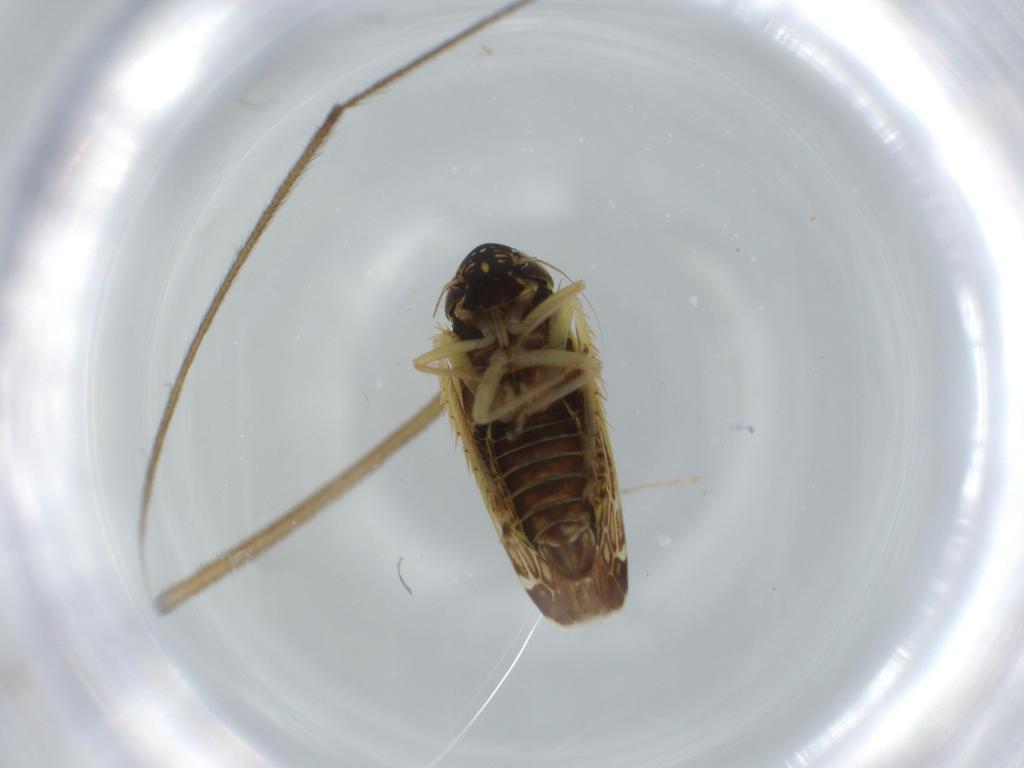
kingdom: Animalia
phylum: Arthropoda
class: Insecta
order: Hemiptera
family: Cicadellidae
